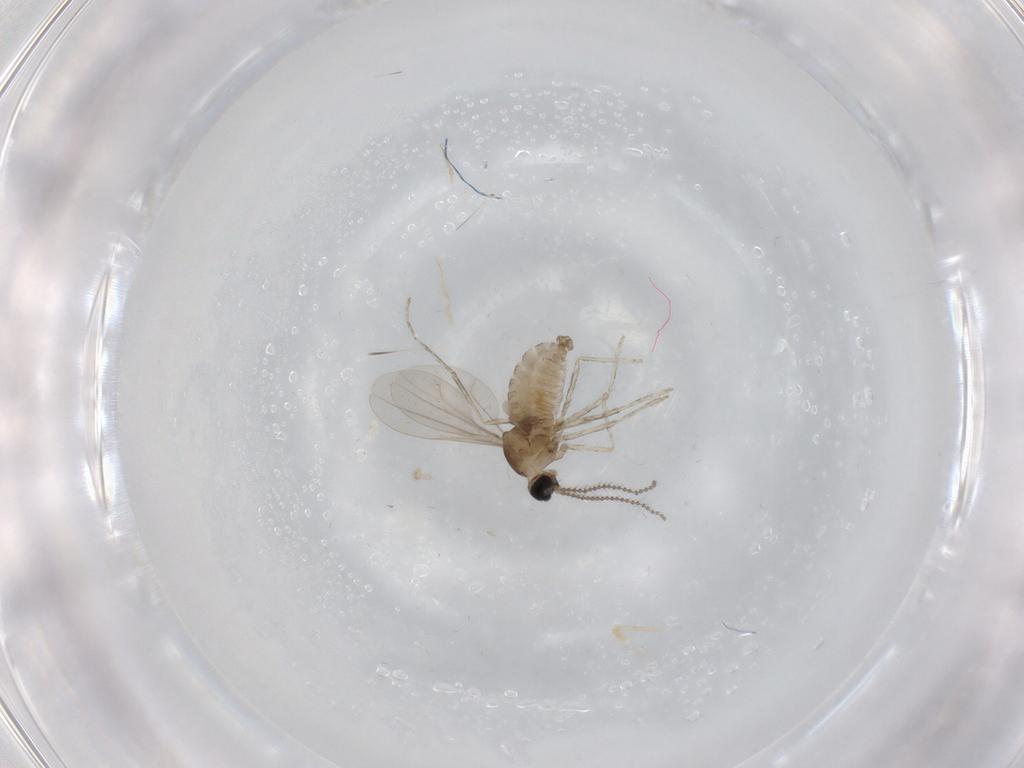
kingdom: Animalia
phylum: Arthropoda
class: Insecta
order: Diptera
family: Cecidomyiidae
